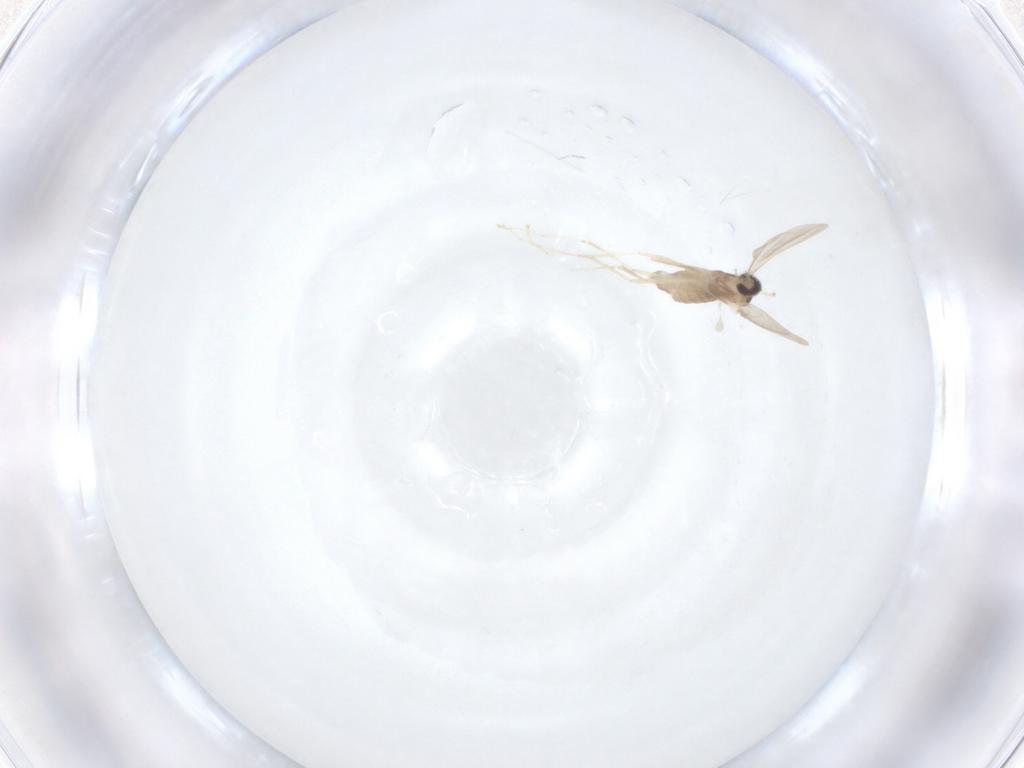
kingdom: Animalia
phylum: Arthropoda
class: Insecta
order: Diptera
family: Cecidomyiidae
